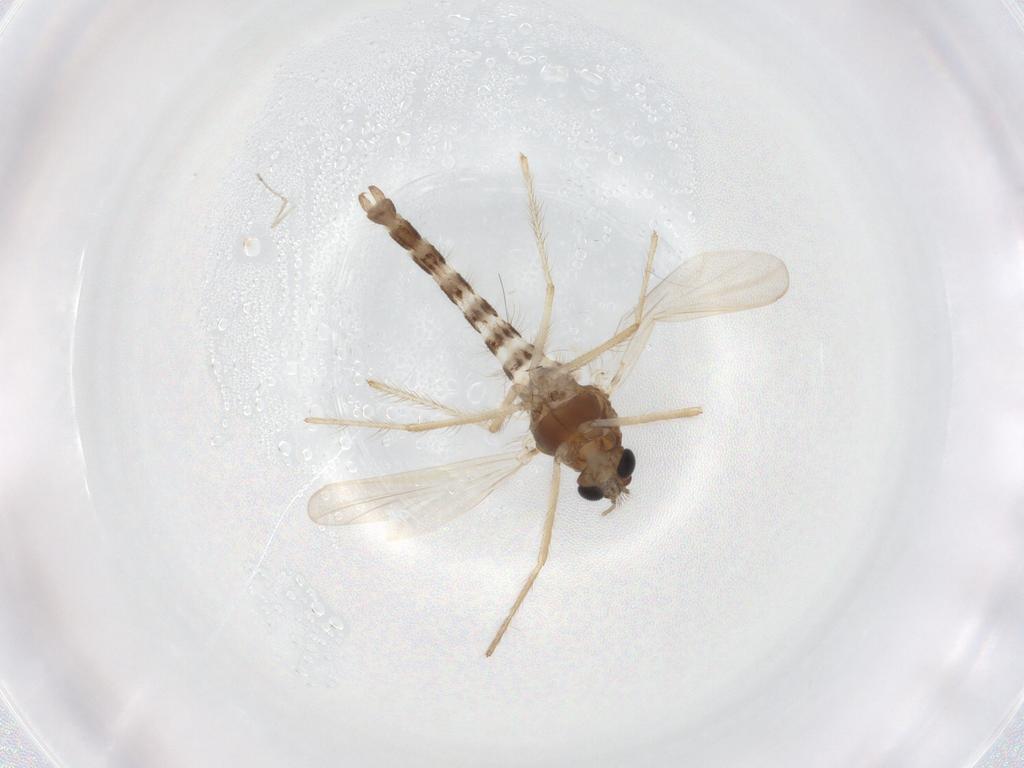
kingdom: Animalia
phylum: Arthropoda
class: Insecta
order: Diptera
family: Chironomidae
